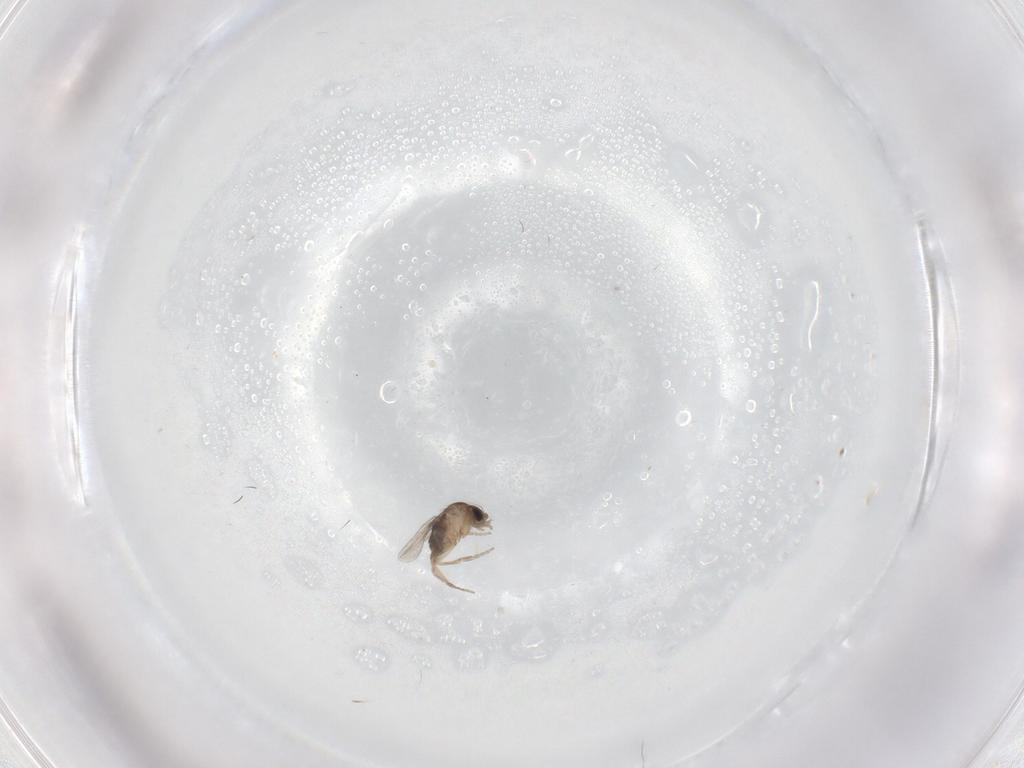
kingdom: Animalia
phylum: Arthropoda
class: Insecta
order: Diptera
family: Phoridae
